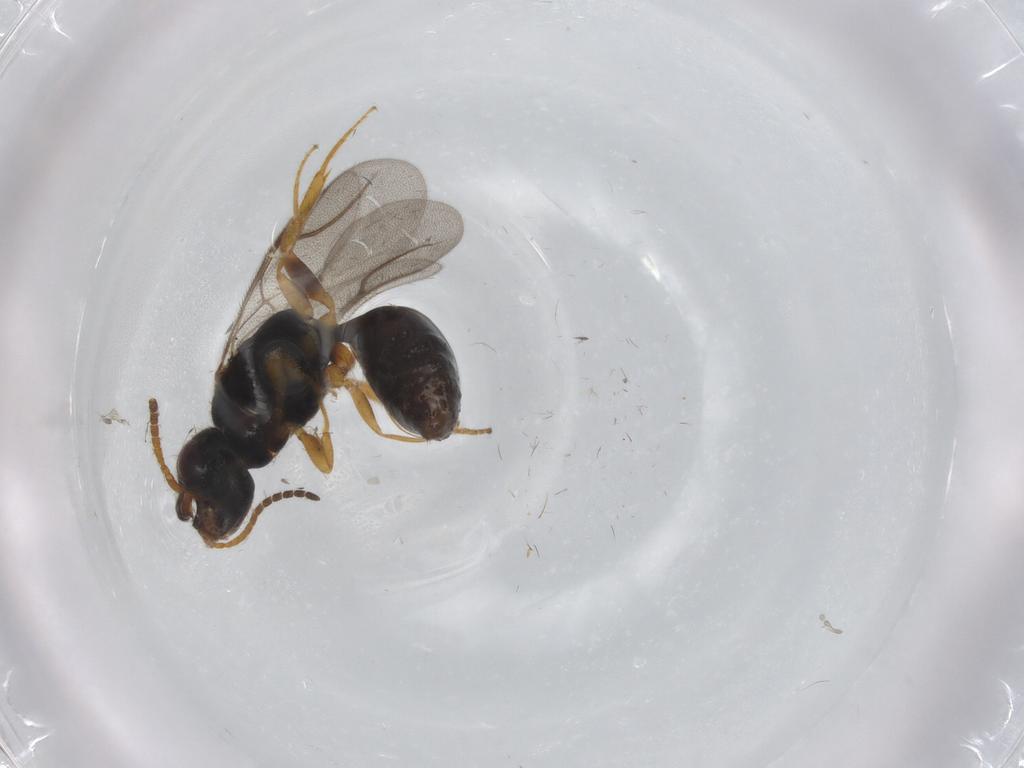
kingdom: Animalia
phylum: Arthropoda
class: Insecta
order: Hymenoptera
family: Bethylidae
